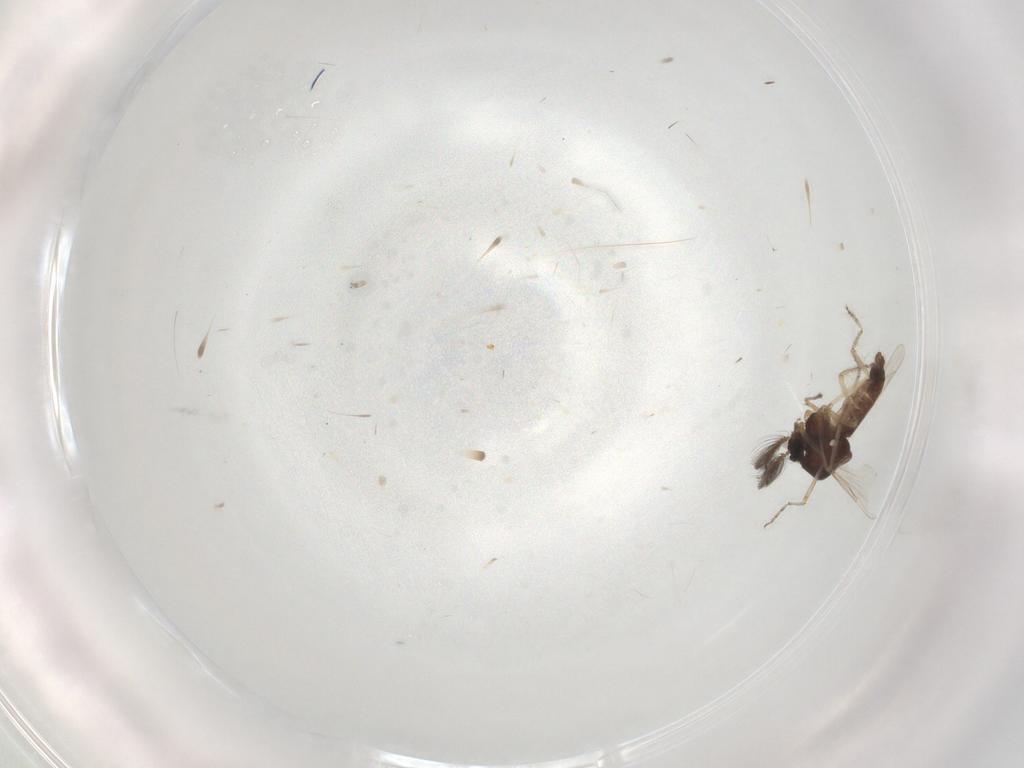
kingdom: Animalia
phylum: Arthropoda
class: Insecta
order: Diptera
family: Ceratopogonidae
